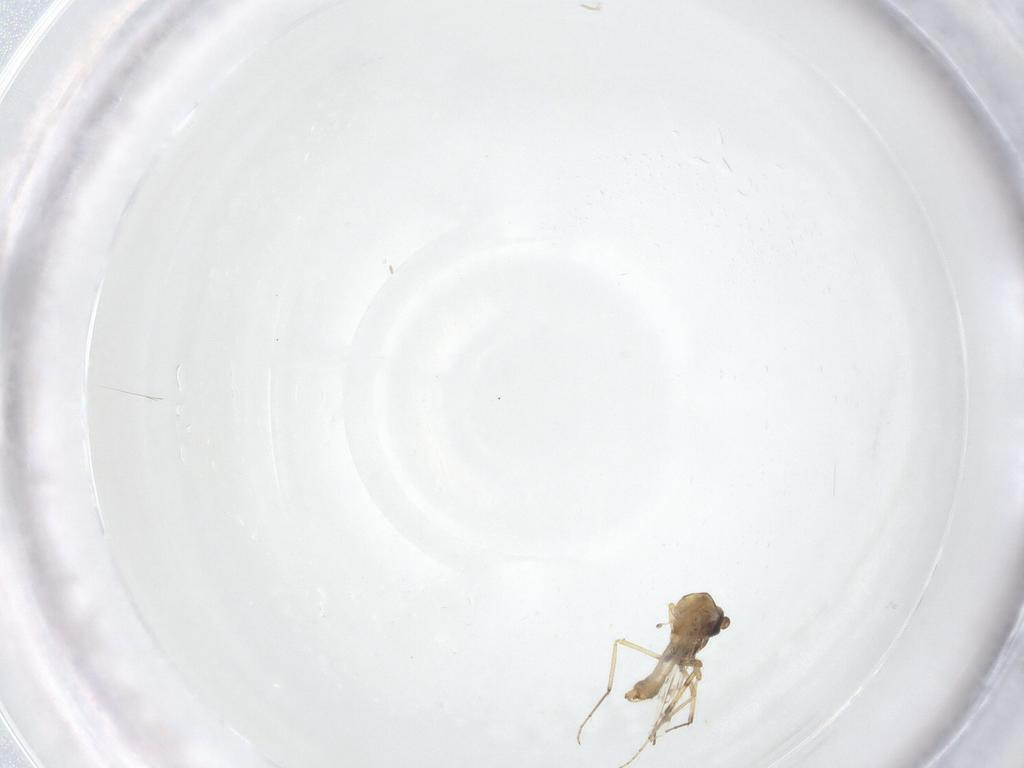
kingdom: Animalia
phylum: Arthropoda
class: Insecta
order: Diptera
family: Ceratopogonidae
